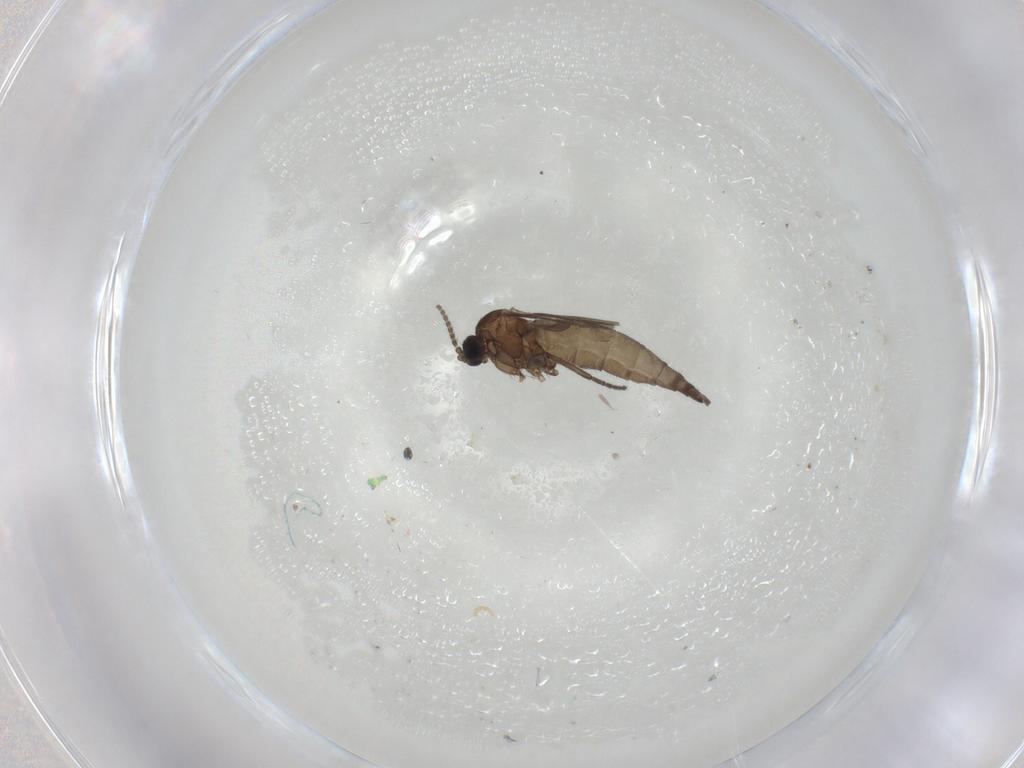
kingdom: Animalia
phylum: Arthropoda
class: Insecta
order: Diptera
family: Sciaridae
